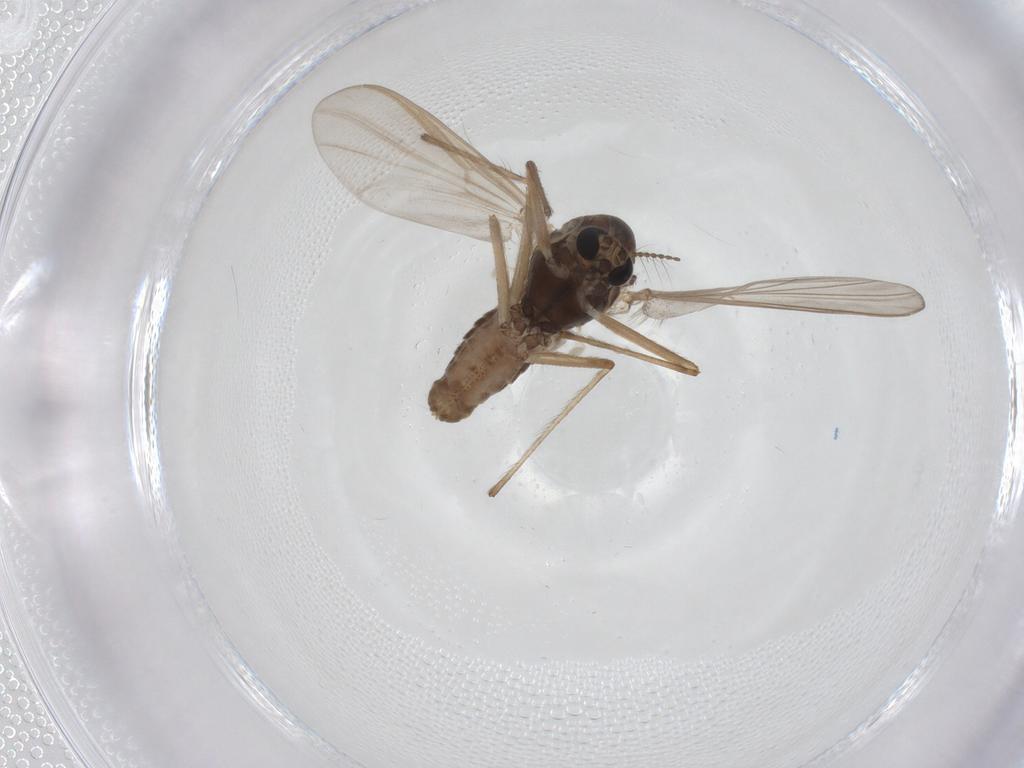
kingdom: Animalia
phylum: Arthropoda
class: Insecta
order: Diptera
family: Chironomidae
